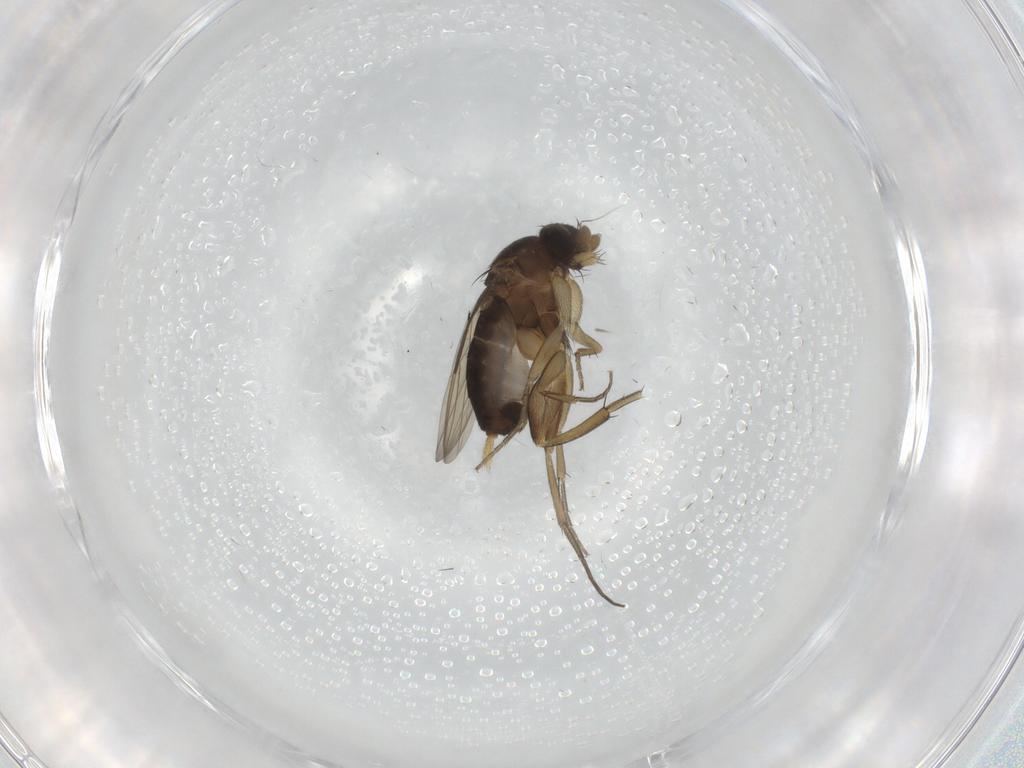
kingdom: Animalia
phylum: Arthropoda
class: Insecta
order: Diptera
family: Phoridae
